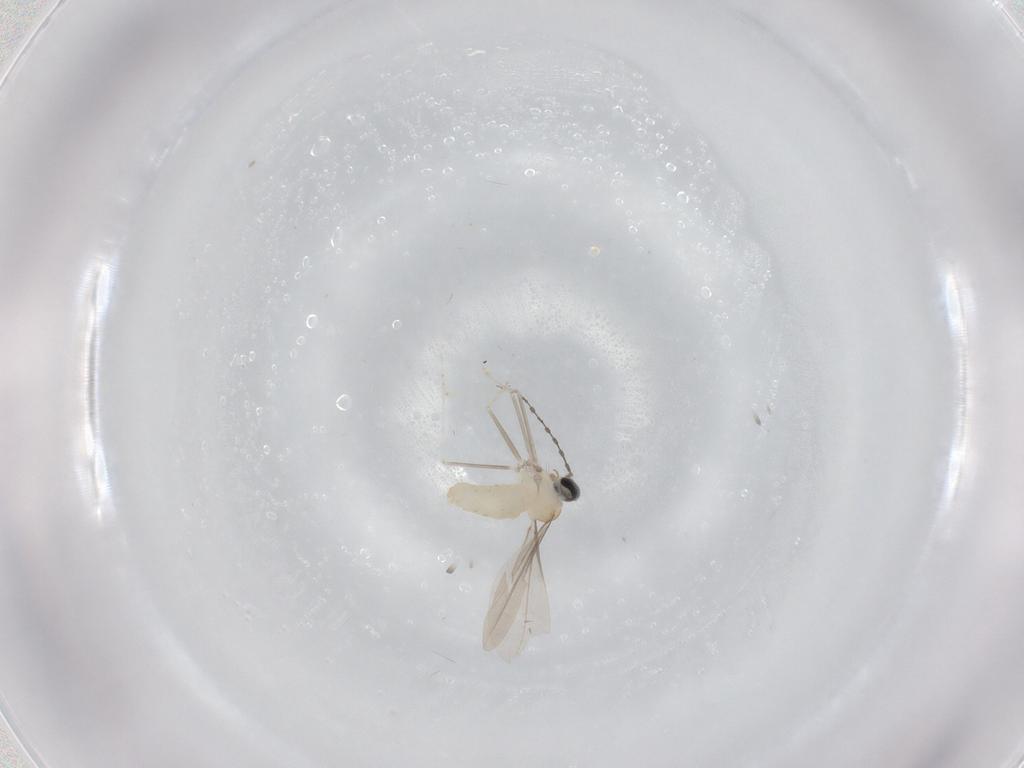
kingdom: Animalia
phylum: Arthropoda
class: Insecta
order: Diptera
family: Cecidomyiidae
